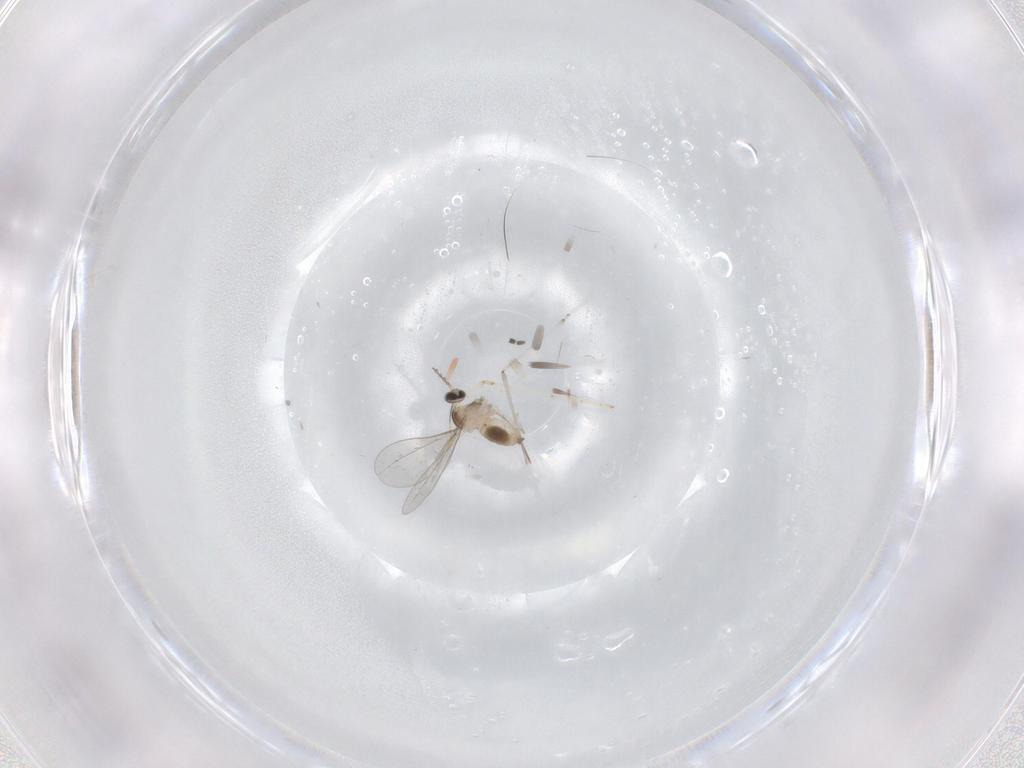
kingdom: Animalia
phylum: Arthropoda
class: Insecta
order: Diptera
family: Cecidomyiidae
